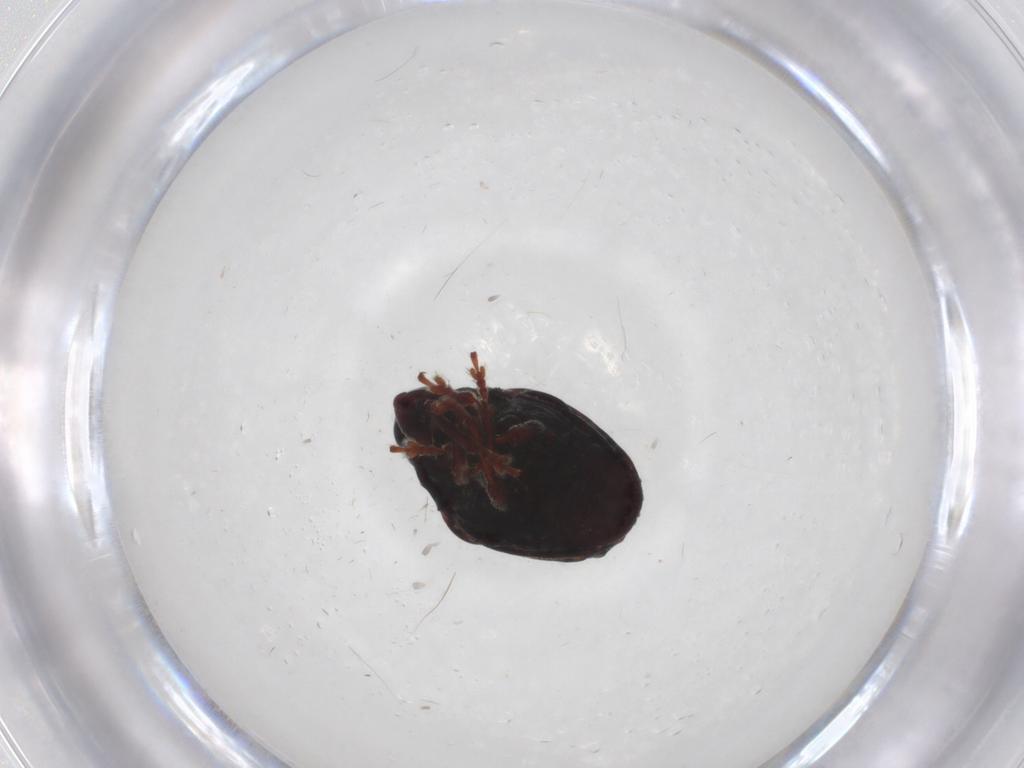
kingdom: Animalia
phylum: Arthropoda
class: Insecta
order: Coleoptera
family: Curculionidae
